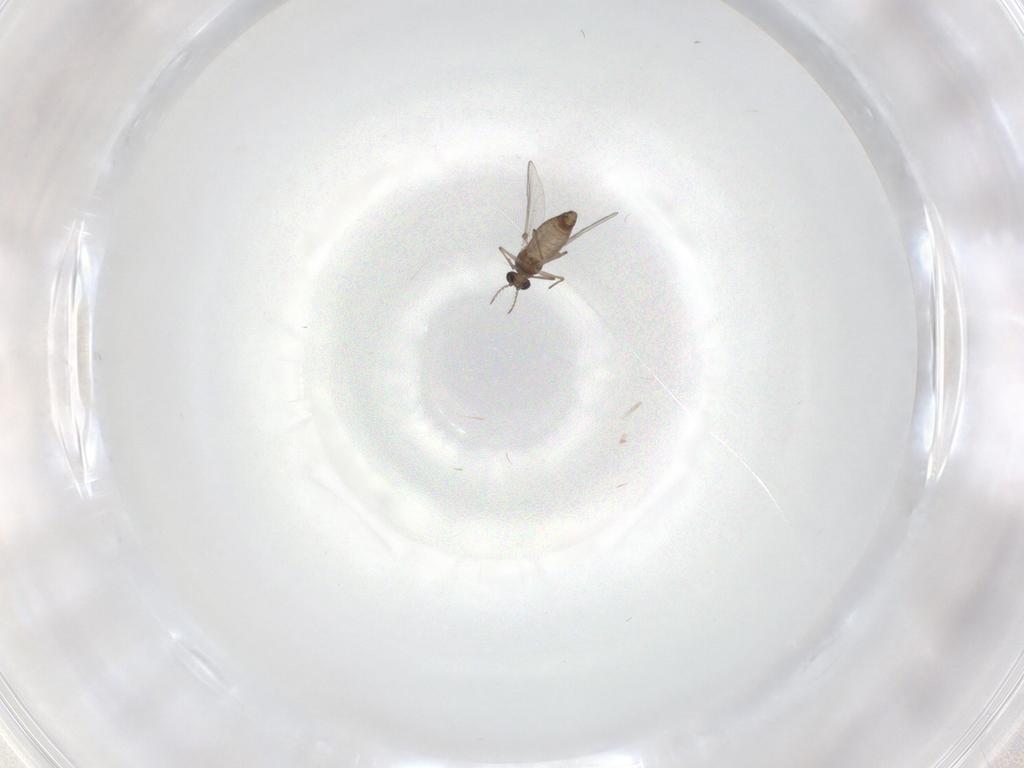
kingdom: Animalia
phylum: Arthropoda
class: Insecta
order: Diptera
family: Chironomidae
